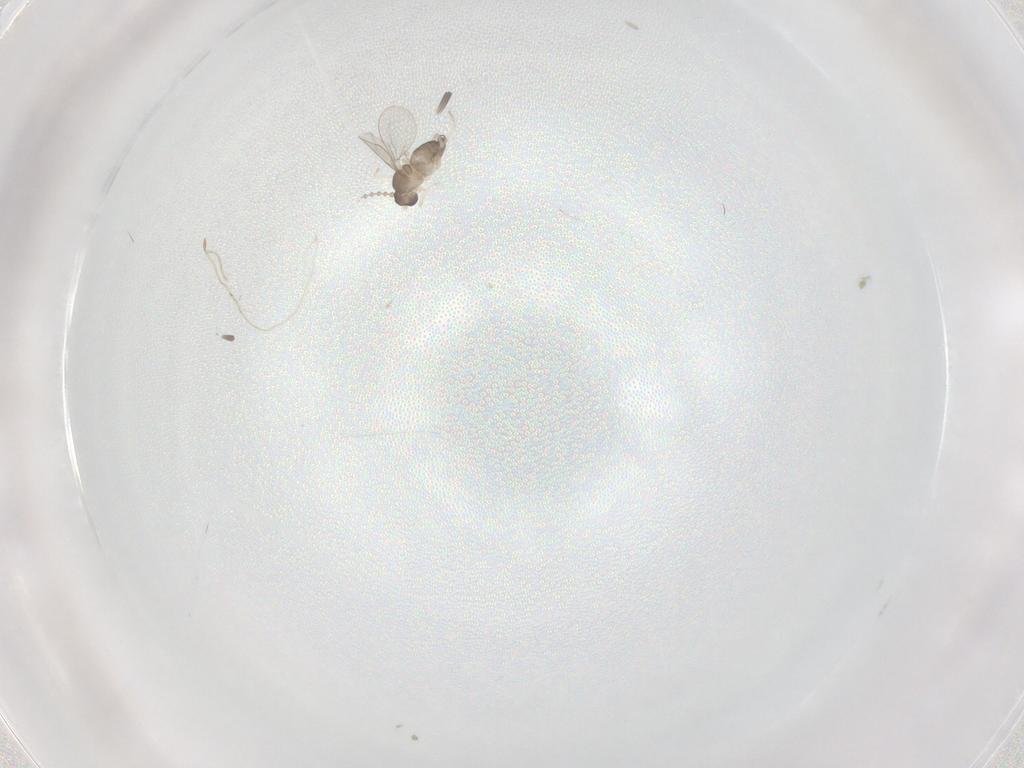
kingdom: Animalia
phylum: Arthropoda
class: Insecta
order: Diptera
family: Cecidomyiidae
